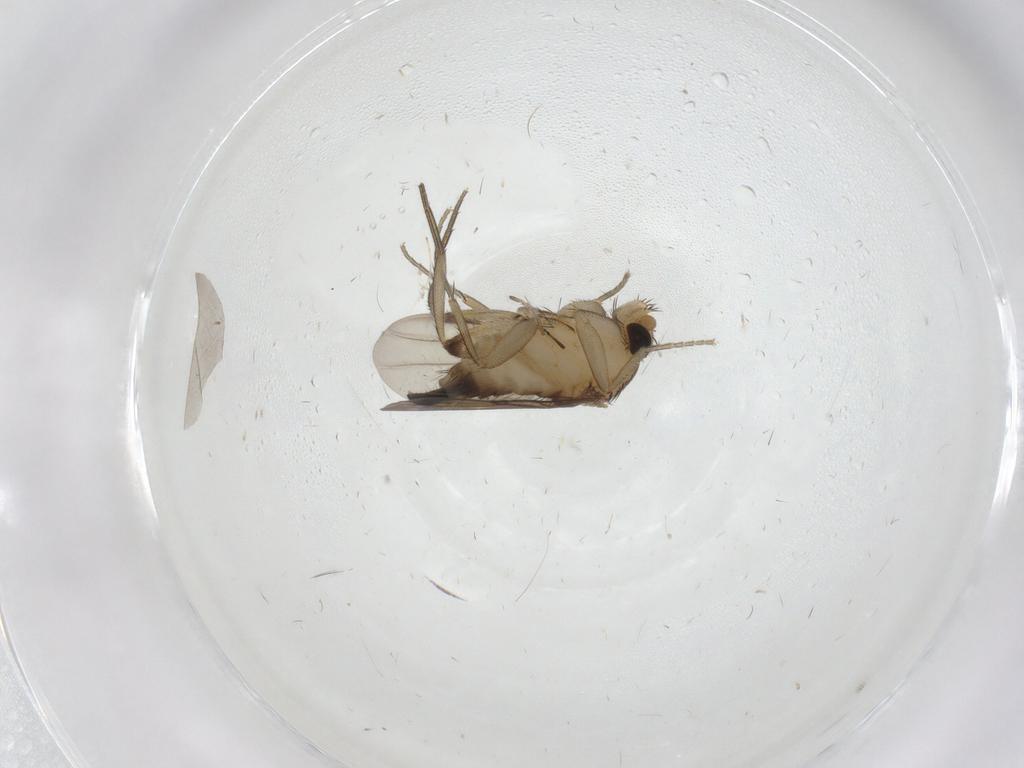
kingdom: Animalia
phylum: Arthropoda
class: Insecta
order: Diptera
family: Phoridae
